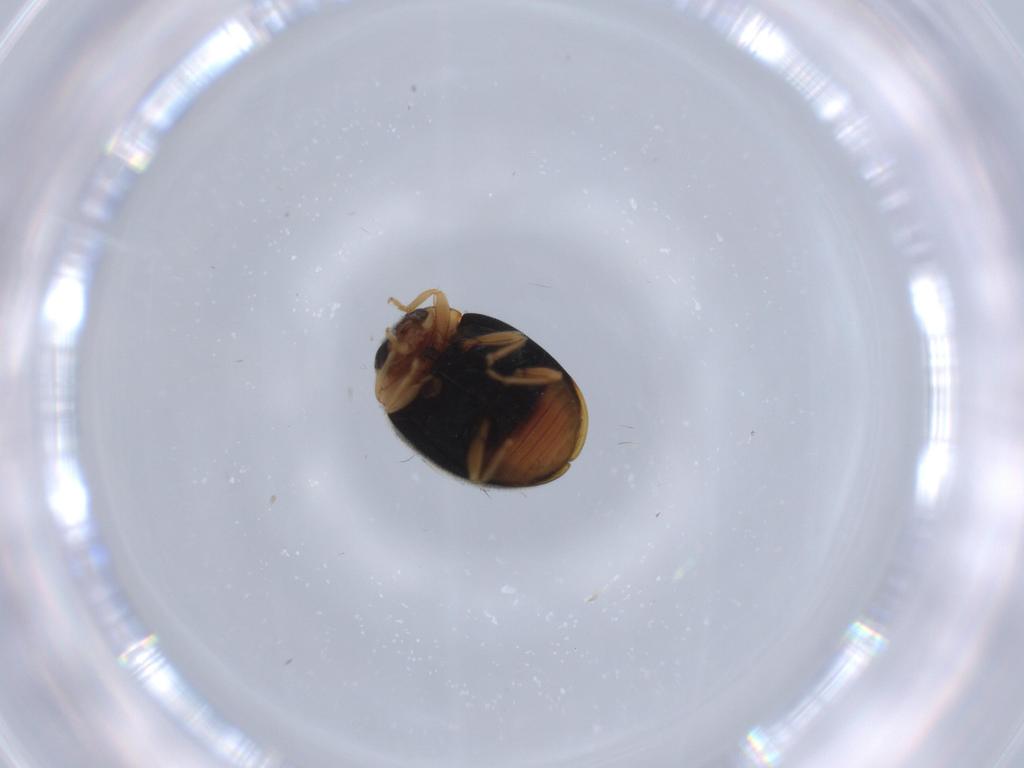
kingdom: Animalia
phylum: Arthropoda
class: Insecta
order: Coleoptera
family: Coccinellidae
